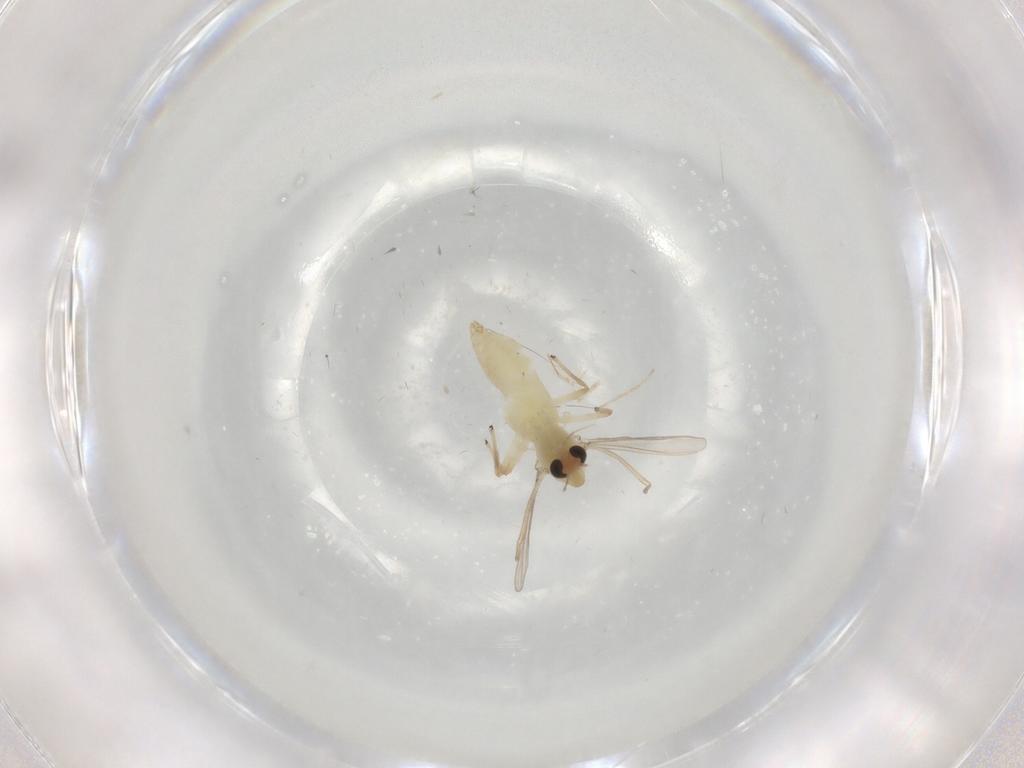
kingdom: Animalia
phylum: Arthropoda
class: Insecta
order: Diptera
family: Chironomidae
